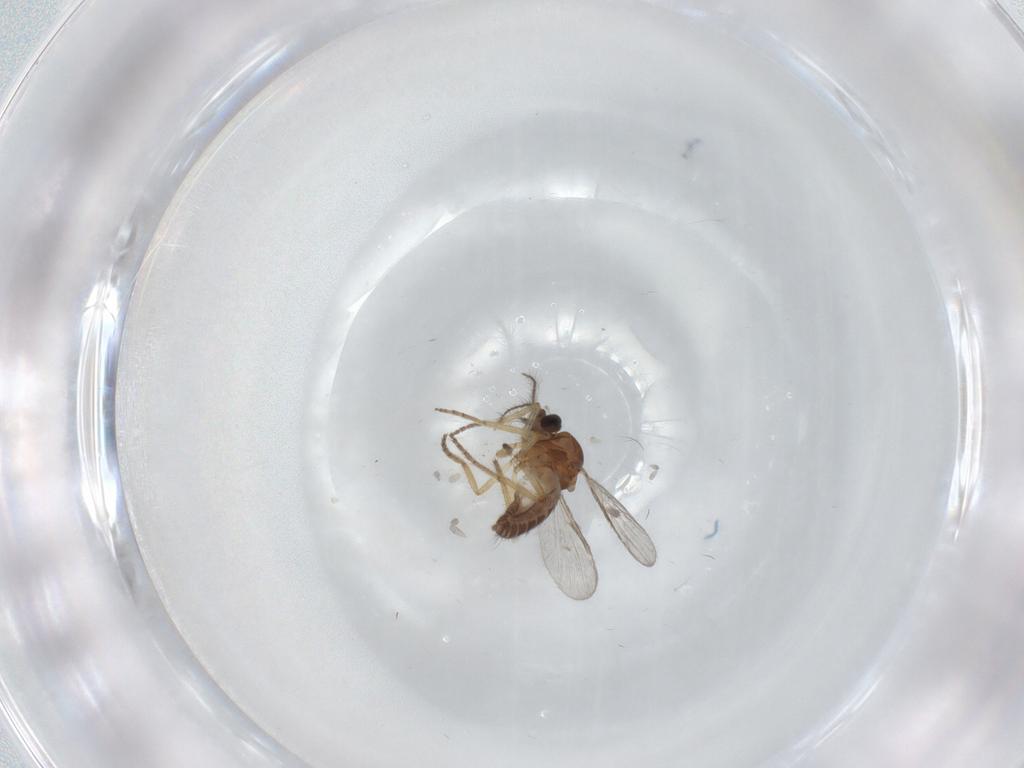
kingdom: Animalia
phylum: Arthropoda
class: Insecta
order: Diptera
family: Ceratopogonidae
